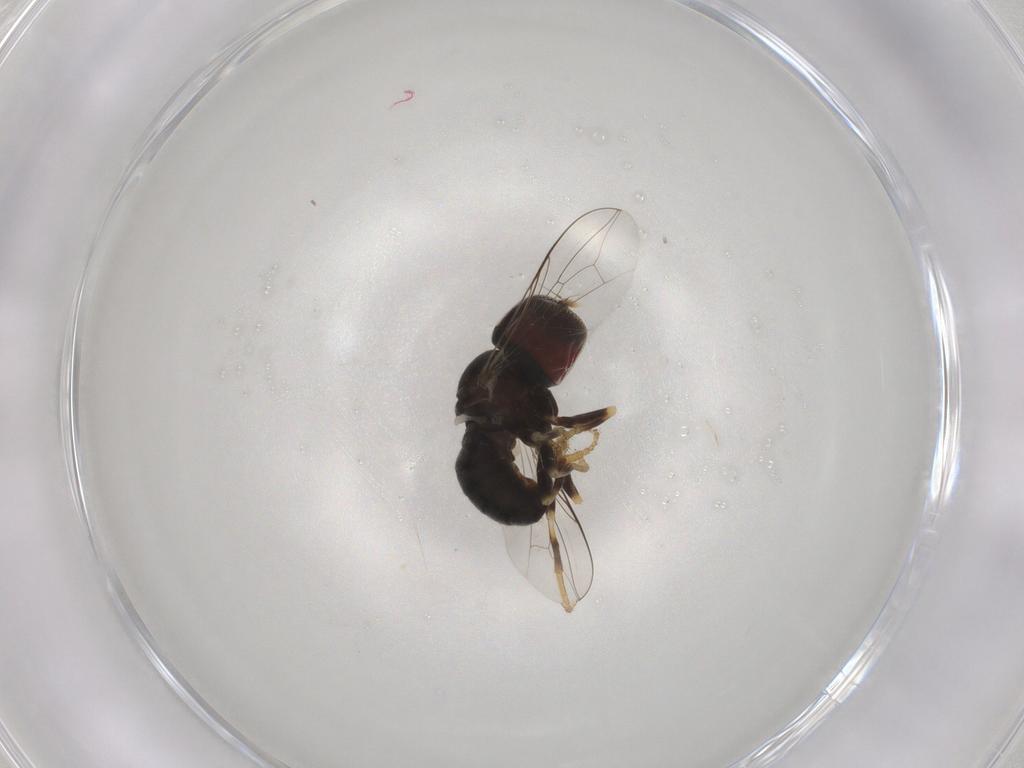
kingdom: Animalia
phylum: Arthropoda
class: Insecta
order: Diptera
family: Pipunculidae
